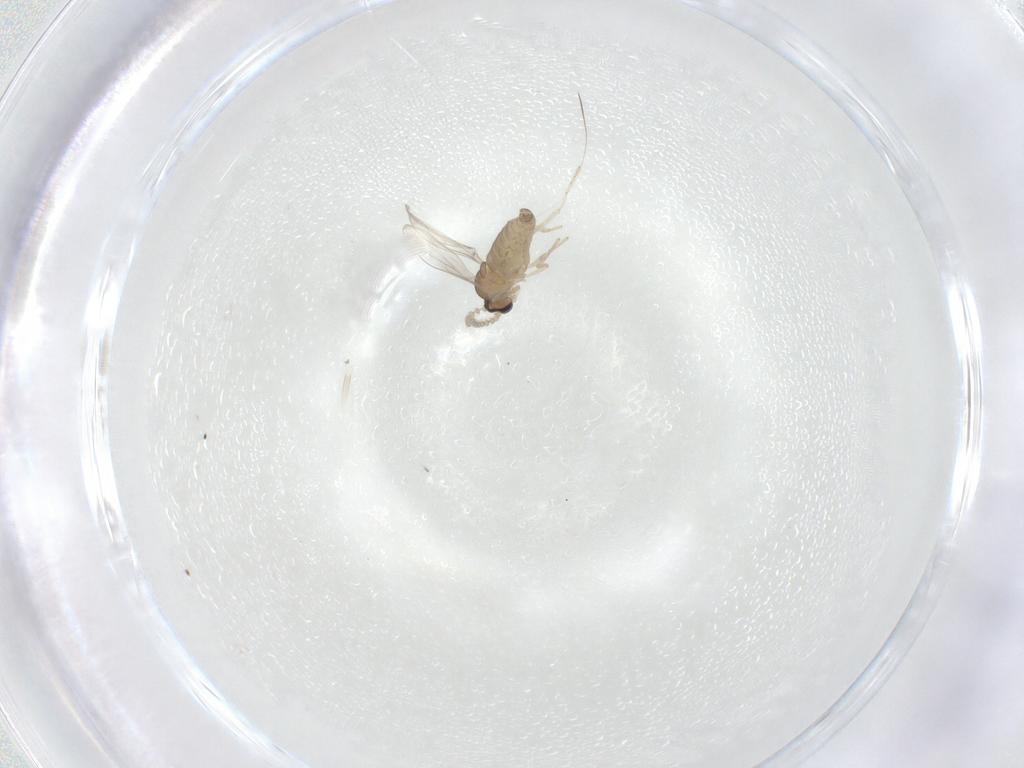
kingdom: Animalia
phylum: Arthropoda
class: Insecta
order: Diptera
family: Cecidomyiidae
